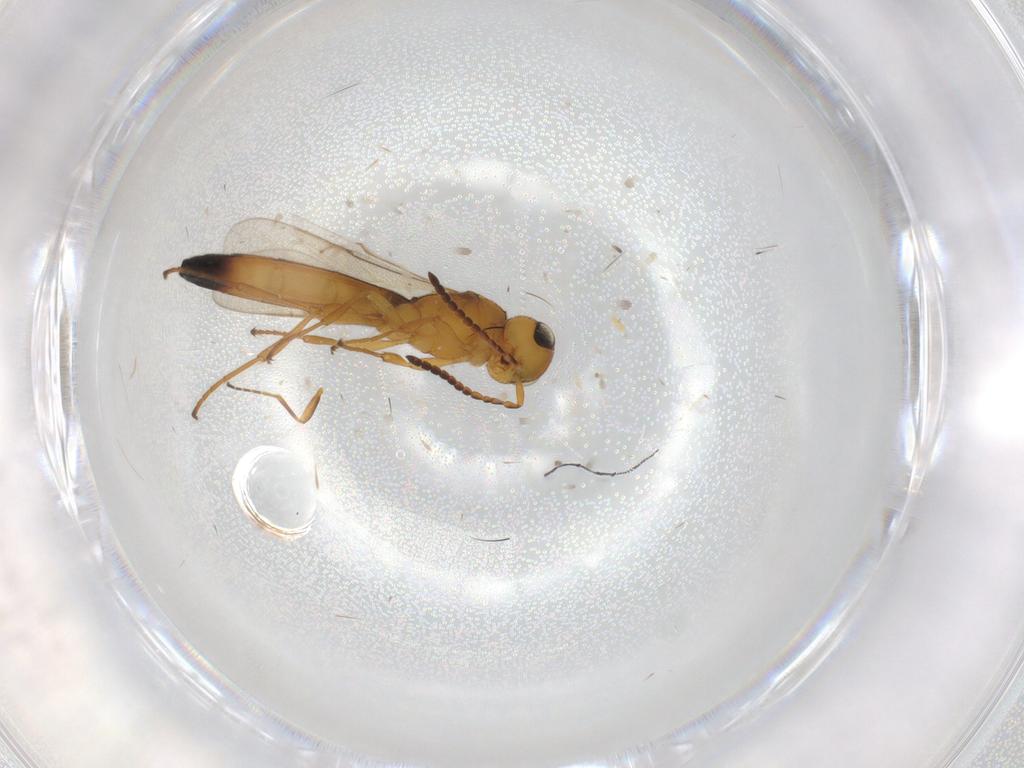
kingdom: Animalia
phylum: Arthropoda
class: Insecta
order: Hymenoptera
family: Braconidae
